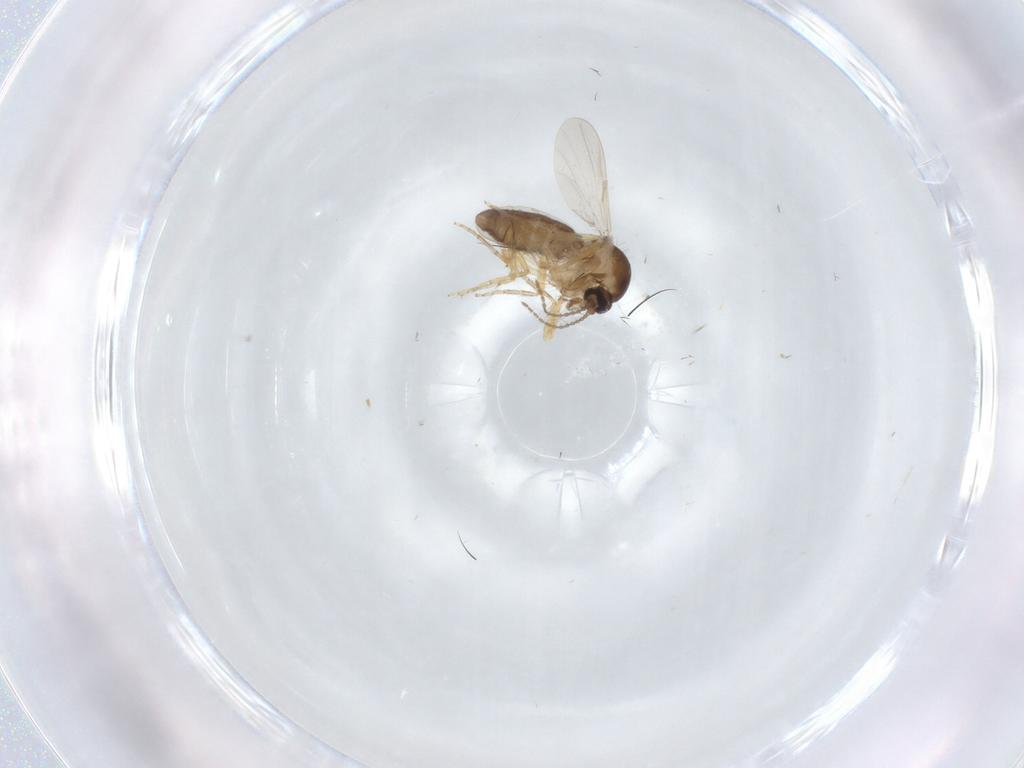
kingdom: Animalia
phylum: Arthropoda
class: Insecta
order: Diptera
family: Ceratopogonidae
